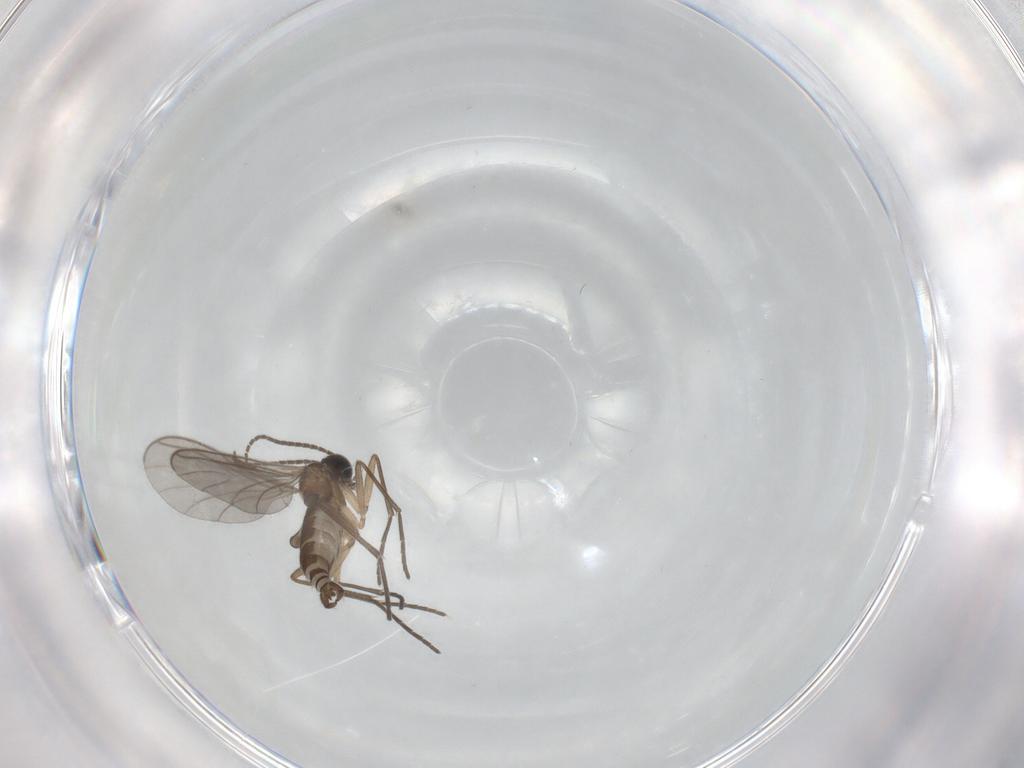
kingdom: Animalia
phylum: Arthropoda
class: Insecta
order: Diptera
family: Sciaridae
